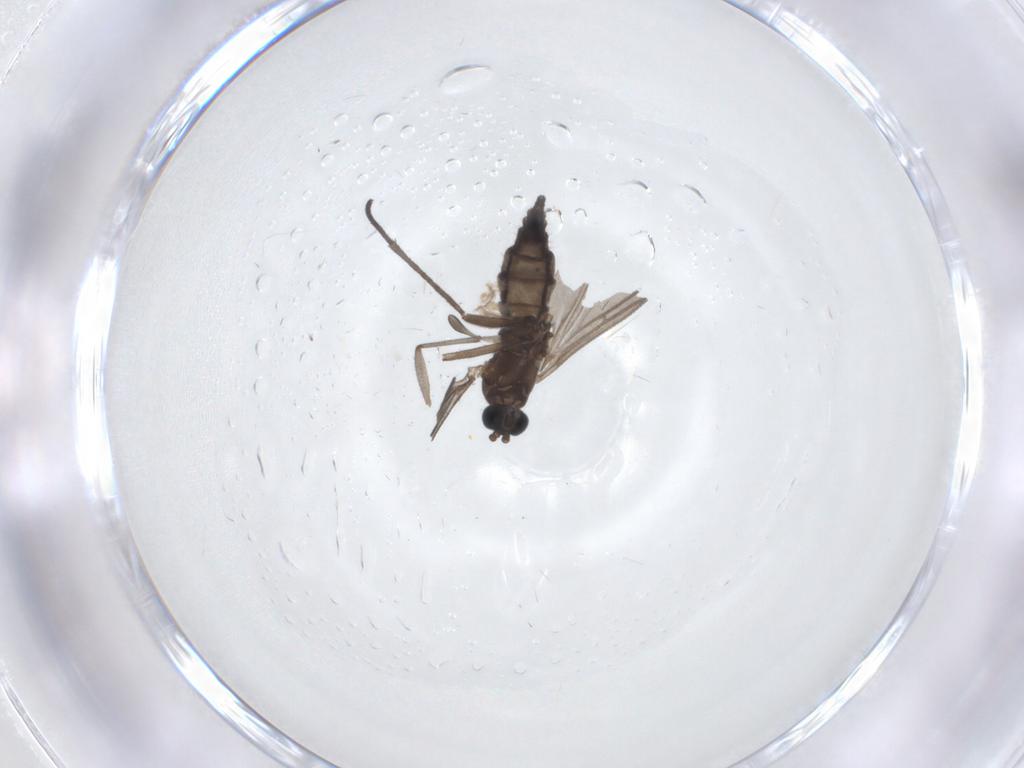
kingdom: Animalia
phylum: Arthropoda
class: Insecta
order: Diptera
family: Sciaridae
